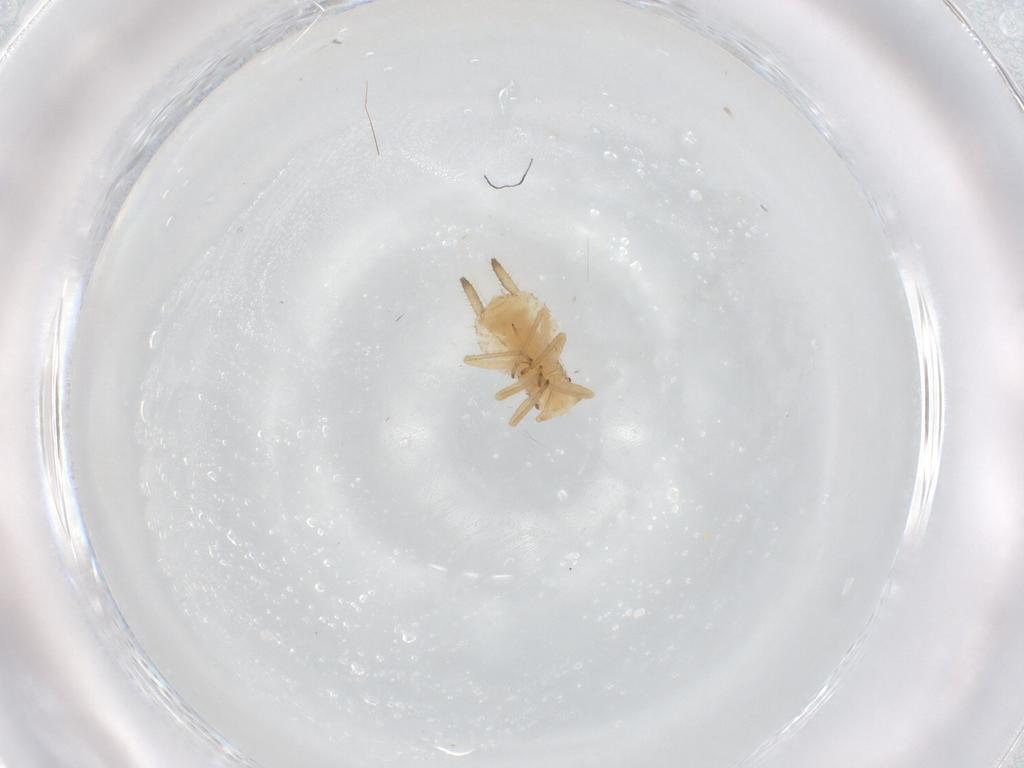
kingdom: Animalia
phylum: Arthropoda
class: Insecta
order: Hemiptera
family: Aphididae
